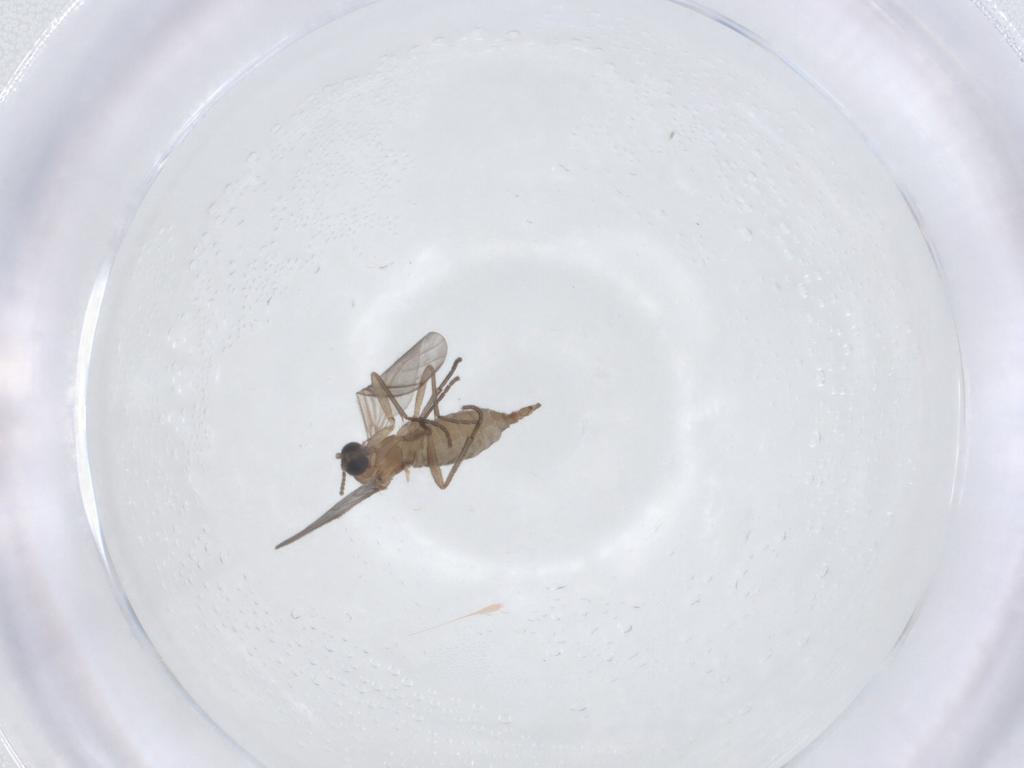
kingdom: Animalia
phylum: Arthropoda
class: Insecta
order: Diptera
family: Sciaridae
